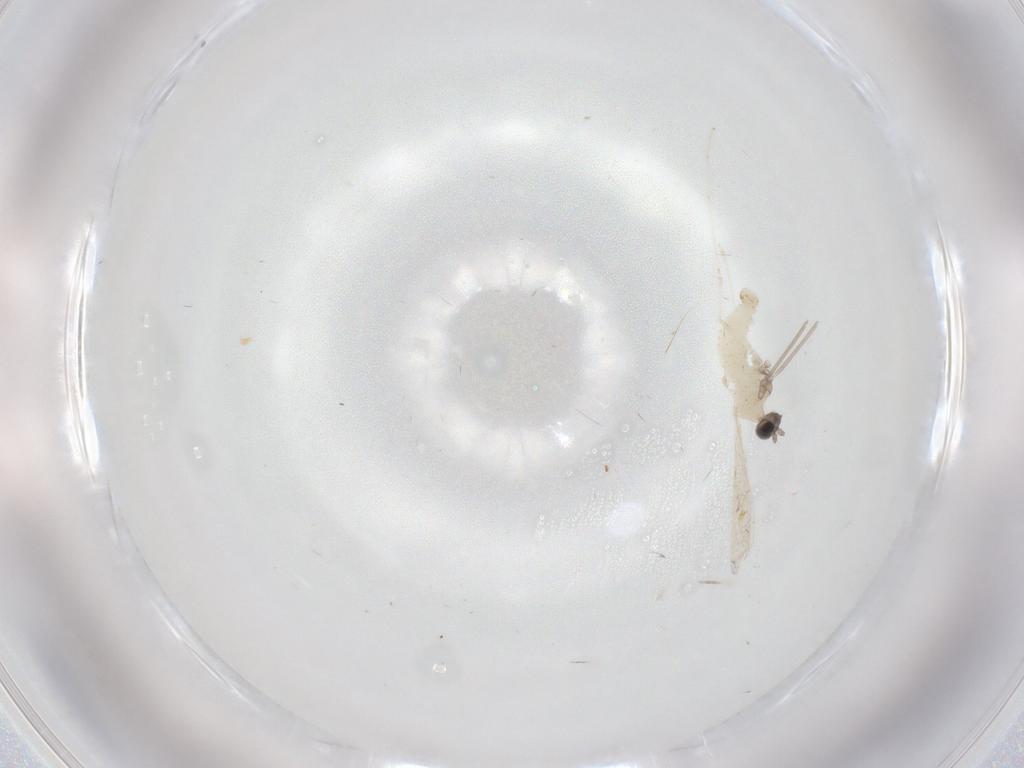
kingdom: Animalia
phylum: Arthropoda
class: Insecta
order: Diptera
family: Cecidomyiidae
